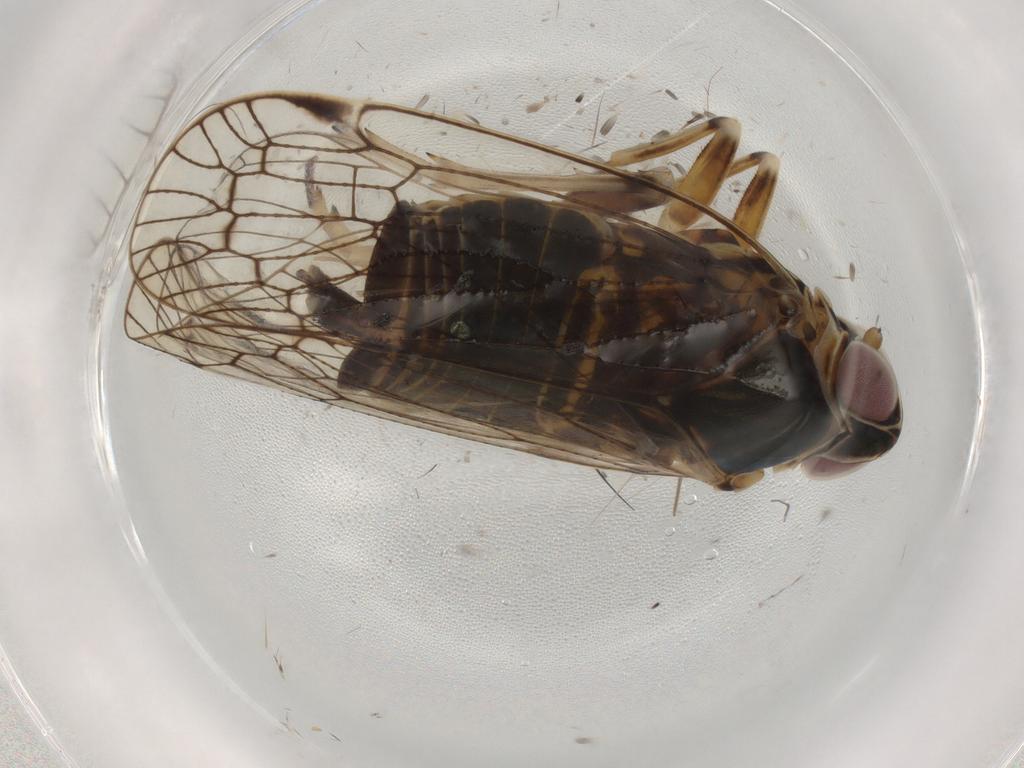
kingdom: Animalia
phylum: Arthropoda
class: Insecta
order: Hemiptera
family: Cixiidae
